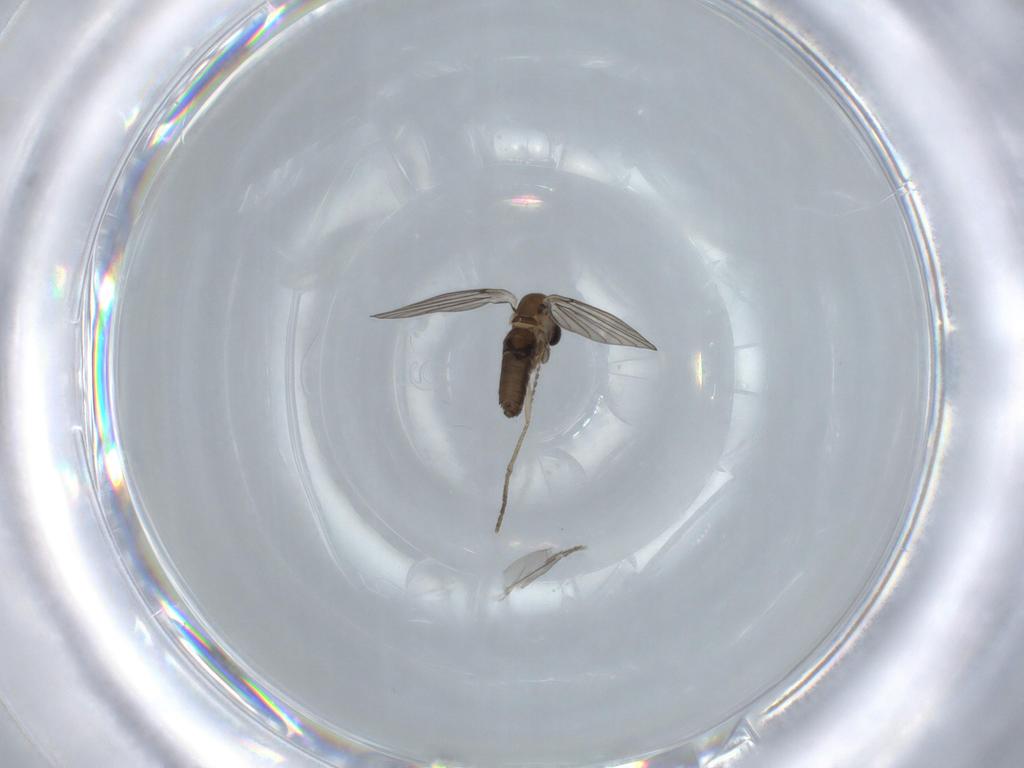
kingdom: Animalia
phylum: Arthropoda
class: Insecta
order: Diptera
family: Psychodidae
